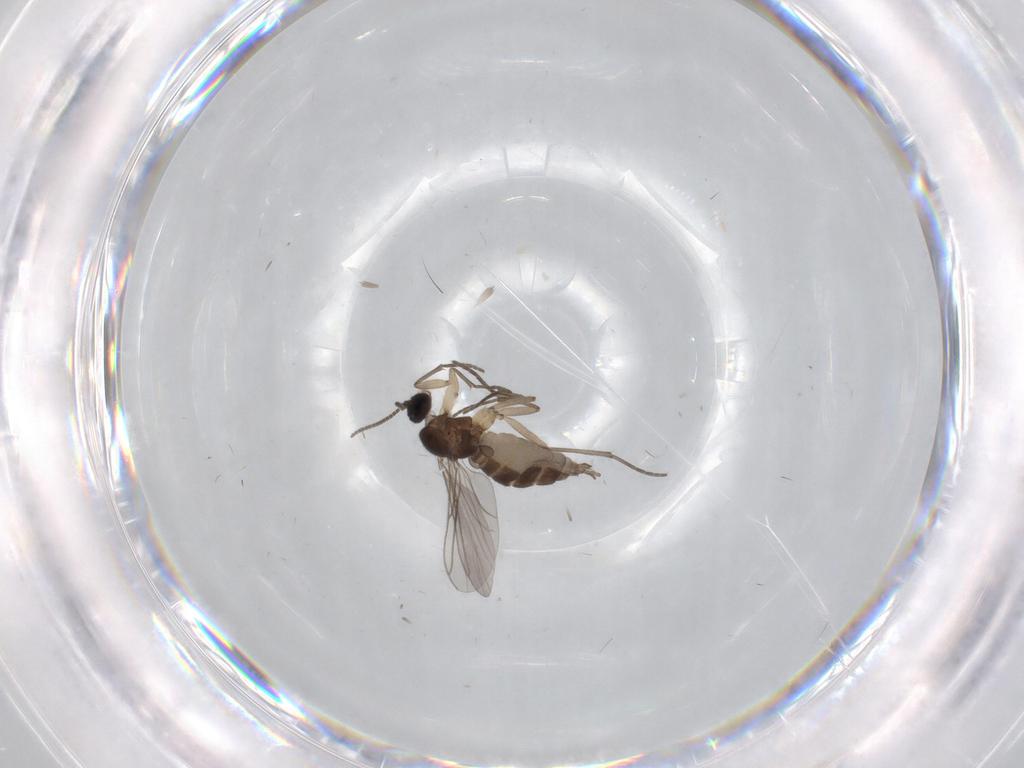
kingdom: Animalia
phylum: Arthropoda
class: Insecta
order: Diptera
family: Sciaridae
